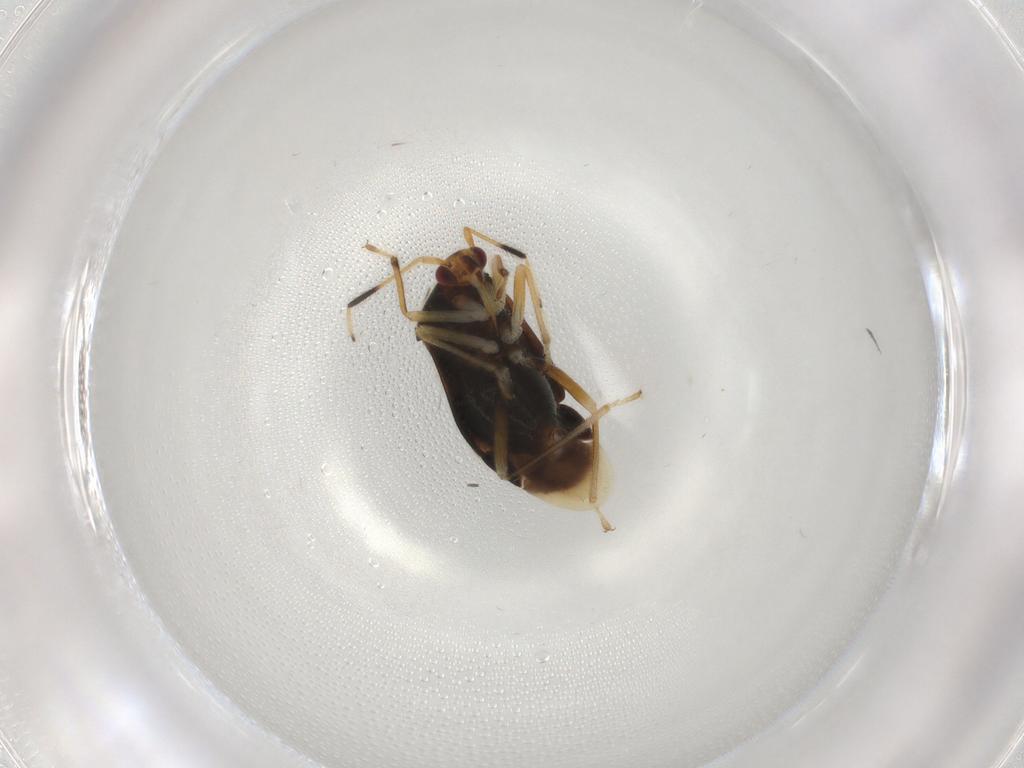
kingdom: Animalia
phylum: Arthropoda
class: Insecta
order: Hemiptera
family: Miridae
